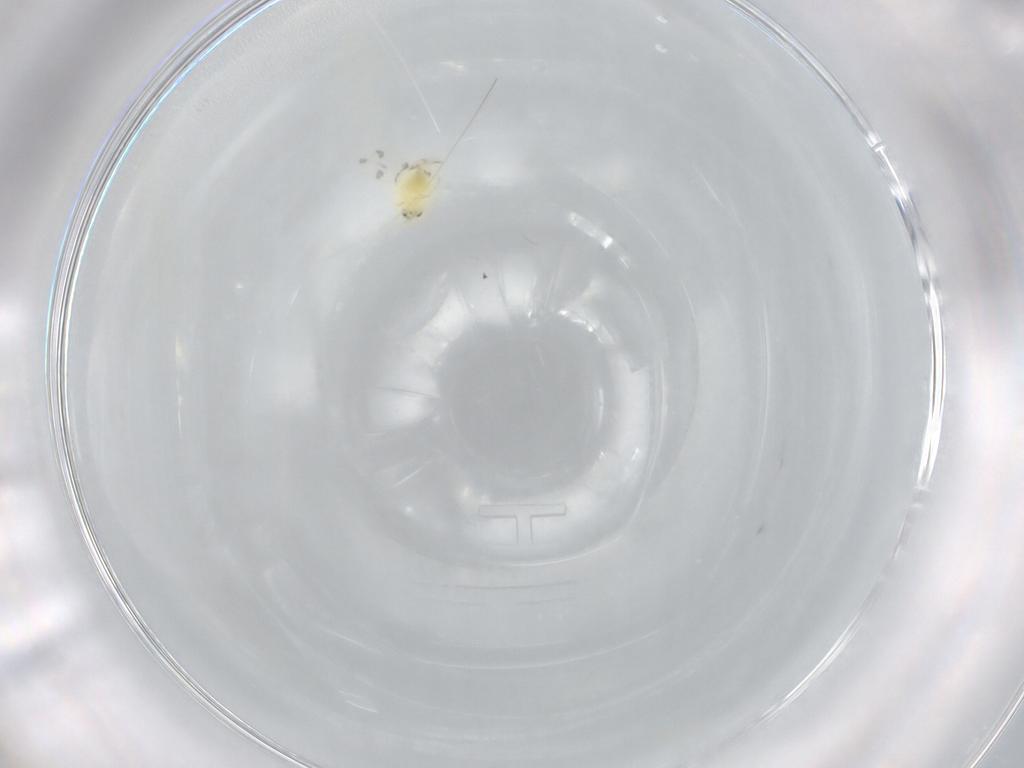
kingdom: Animalia
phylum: Arthropoda
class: Insecta
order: Hemiptera
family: Aleyrodidae
